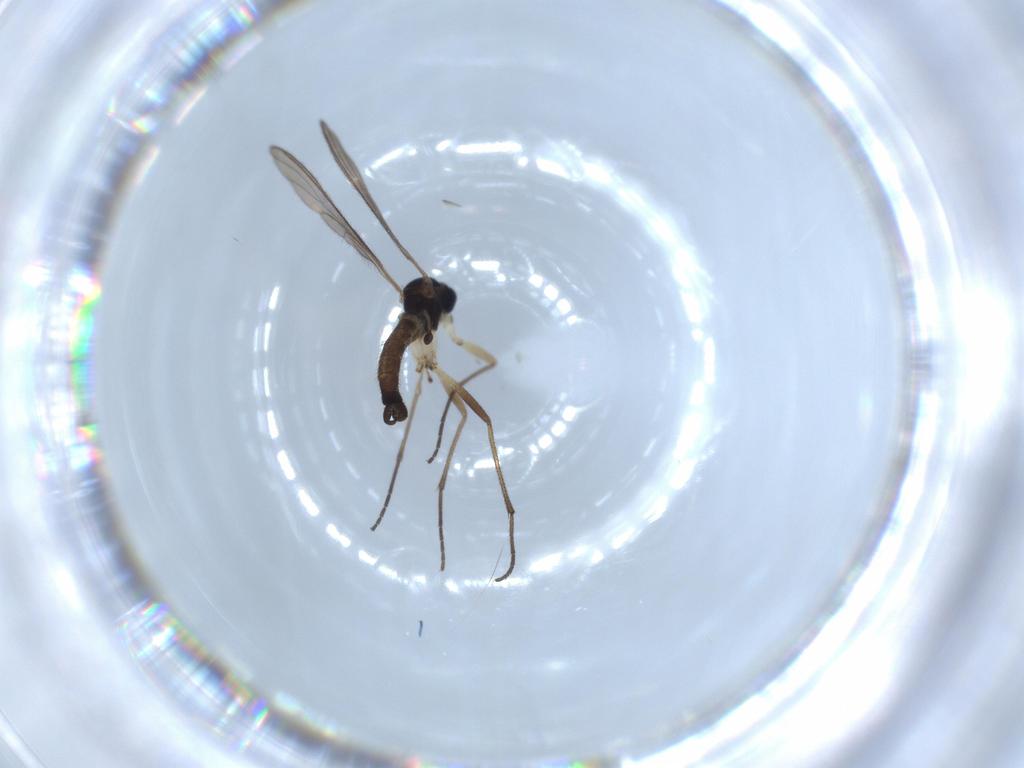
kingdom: Animalia
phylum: Arthropoda
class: Insecta
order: Diptera
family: Sciaridae
